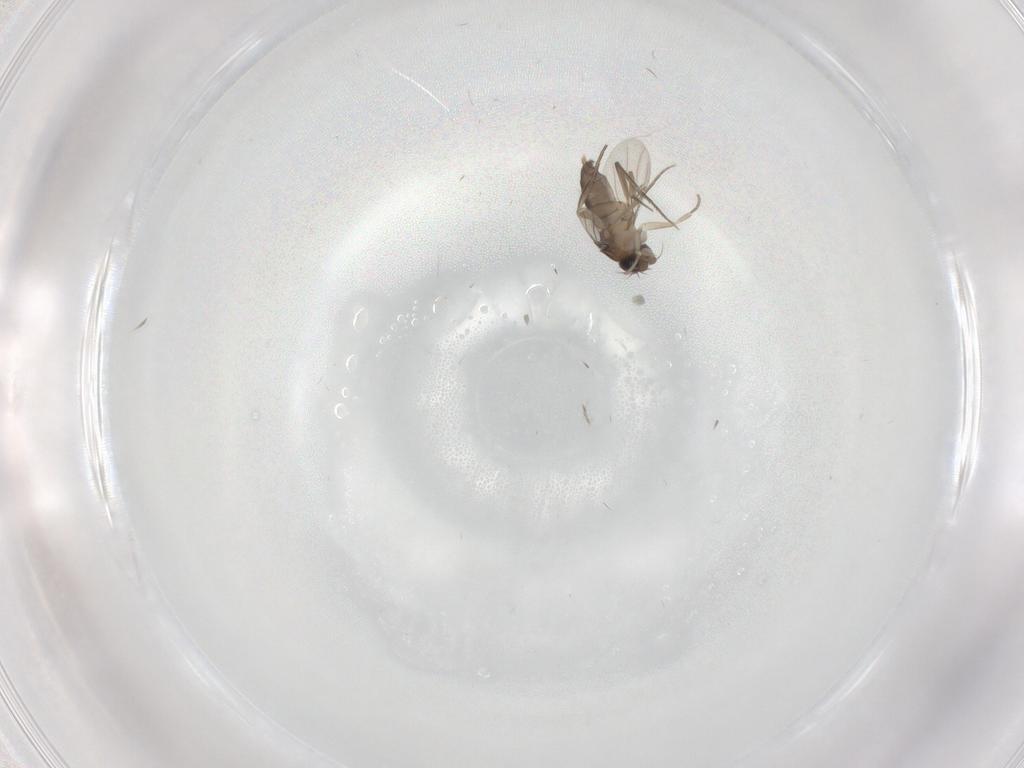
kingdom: Animalia
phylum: Arthropoda
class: Insecta
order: Diptera
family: Phoridae
